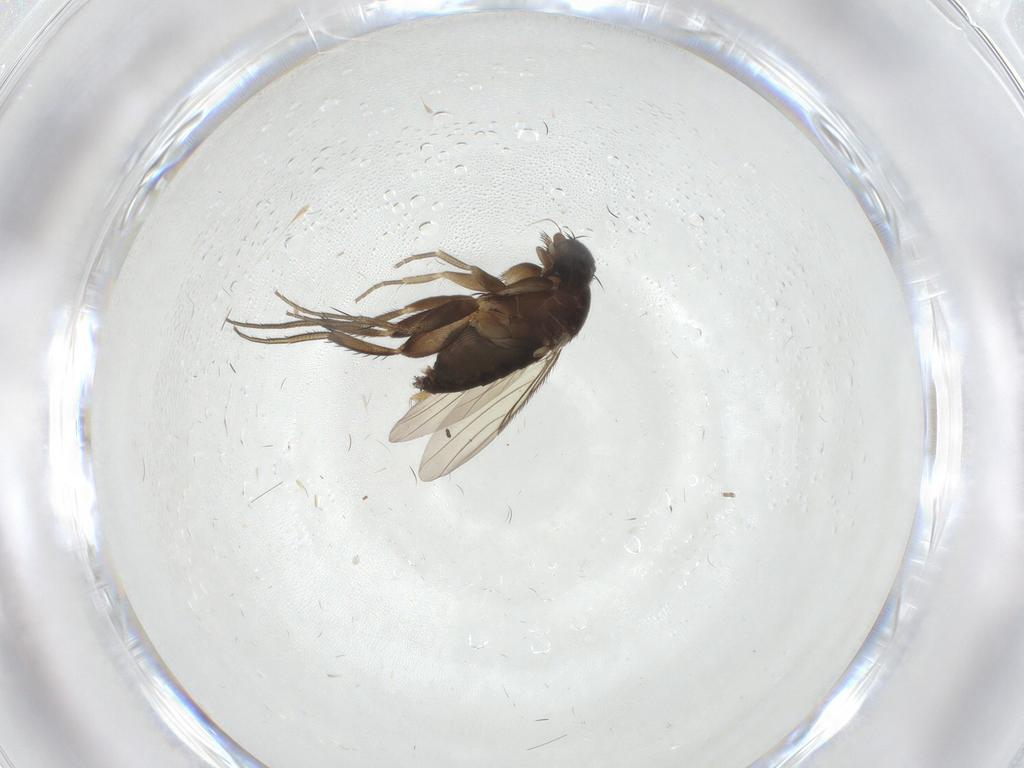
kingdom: Animalia
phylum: Arthropoda
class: Insecta
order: Diptera
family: Phoridae
